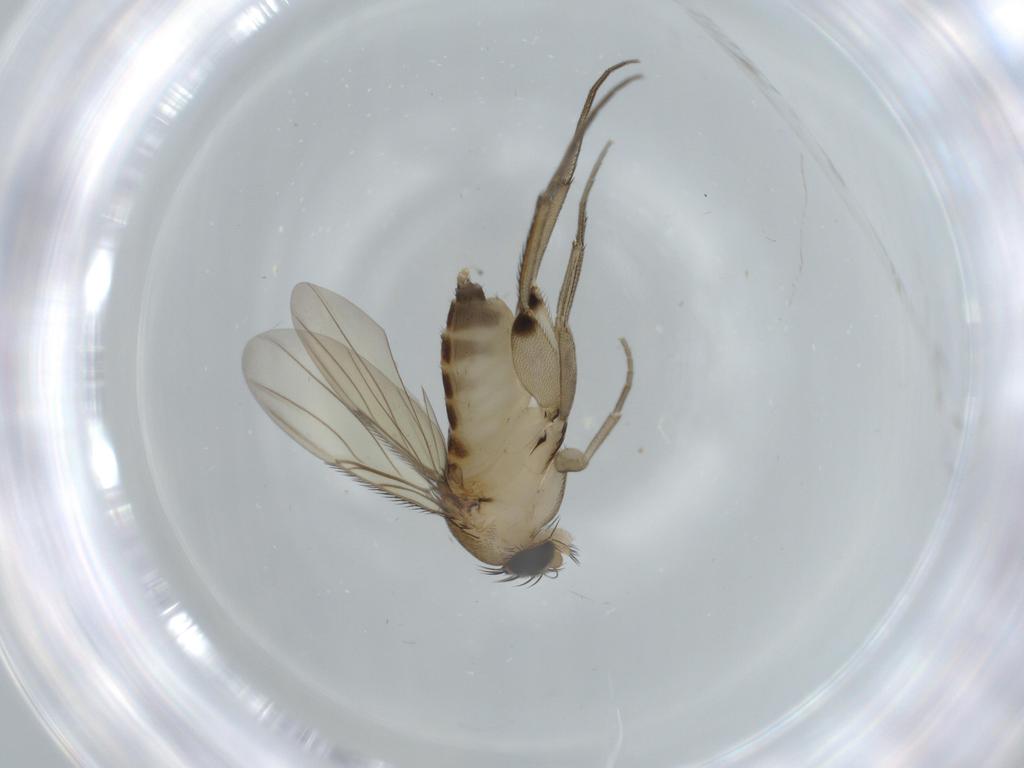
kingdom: Animalia
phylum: Arthropoda
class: Insecta
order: Diptera
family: Phoridae
